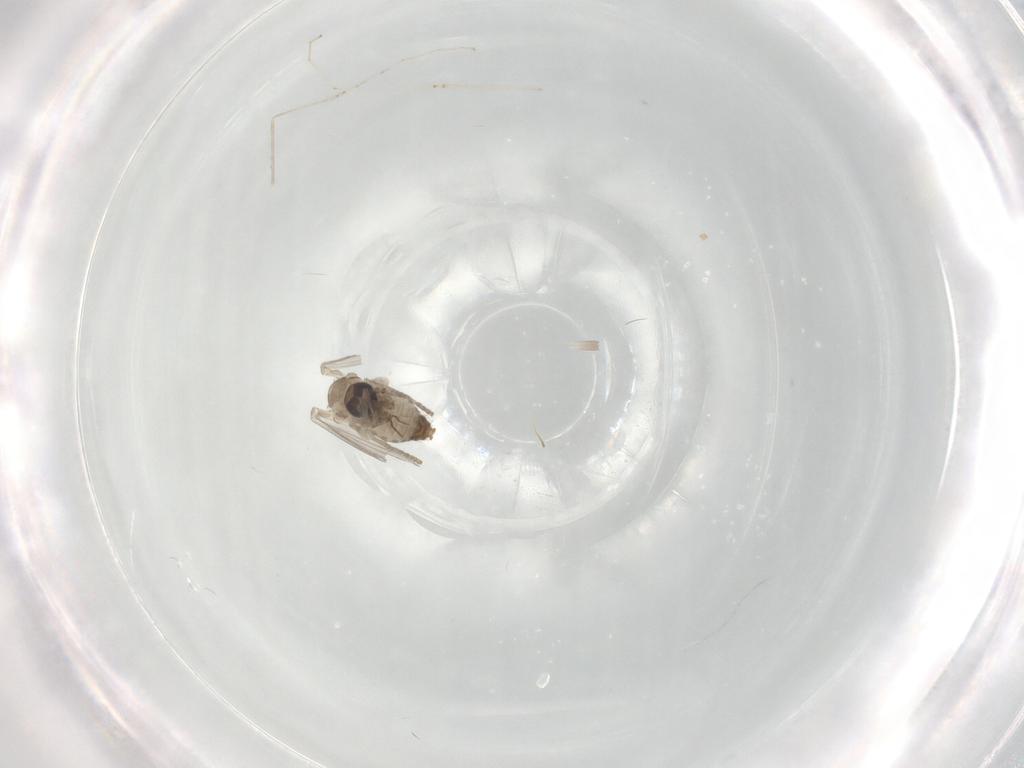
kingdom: Animalia
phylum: Arthropoda
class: Insecta
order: Diptera
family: Psychodidae
